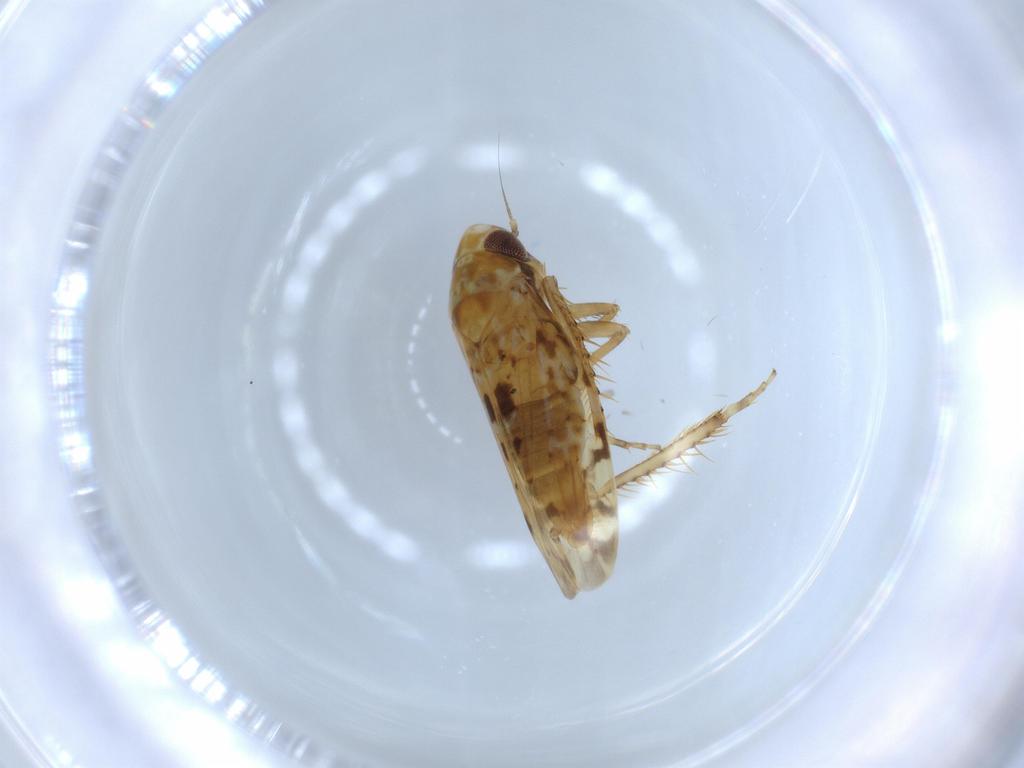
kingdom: Animalia
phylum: Arthropoda
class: Insecta
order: Hemiptera
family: Cicadellidae
